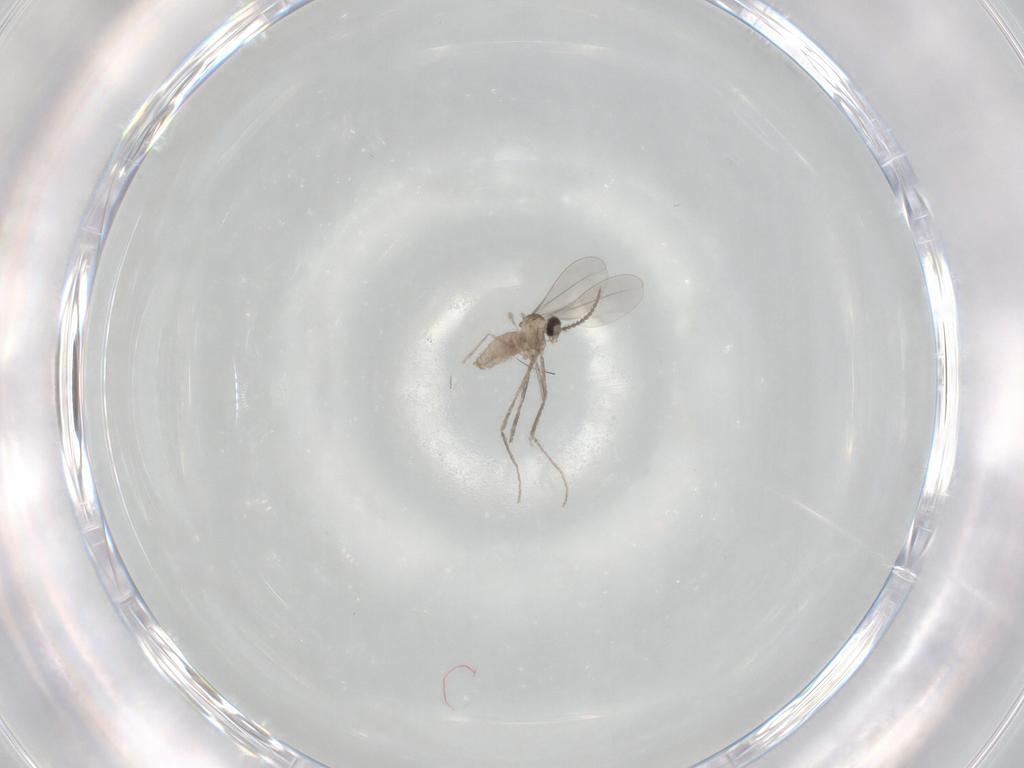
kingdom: Animalia
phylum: Arthropoda
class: Insecta
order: Diptera
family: Cecidomyiidae
